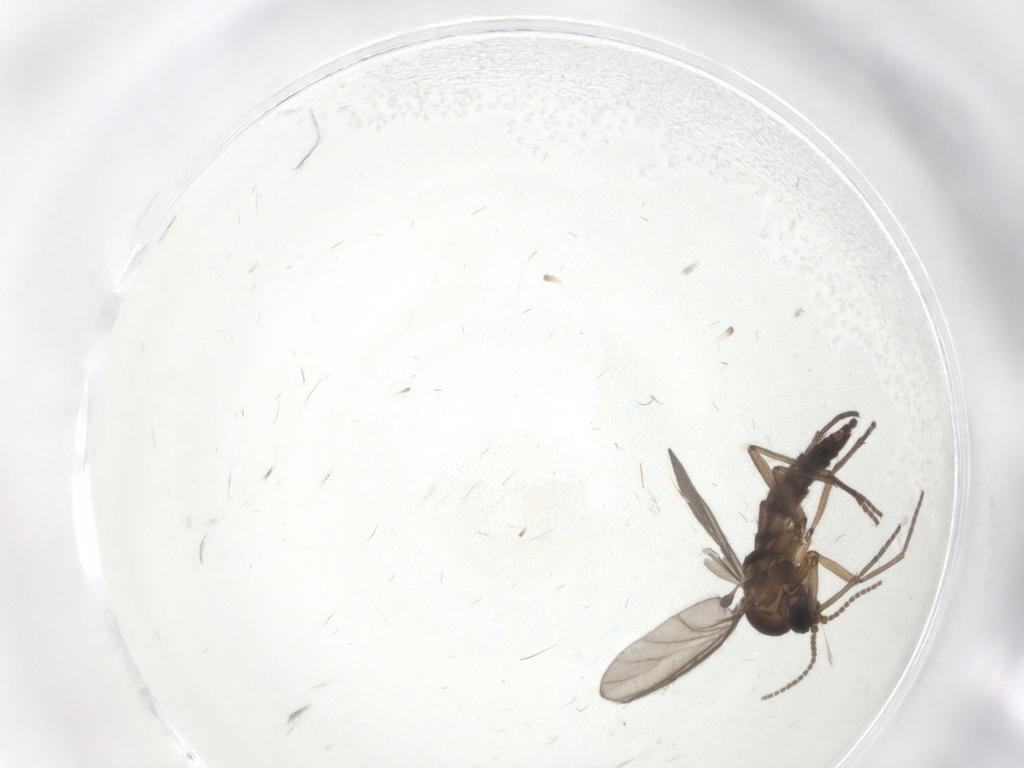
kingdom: Animalia
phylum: Arthropoda
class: Insecta
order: Diptera
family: Sciaridae
